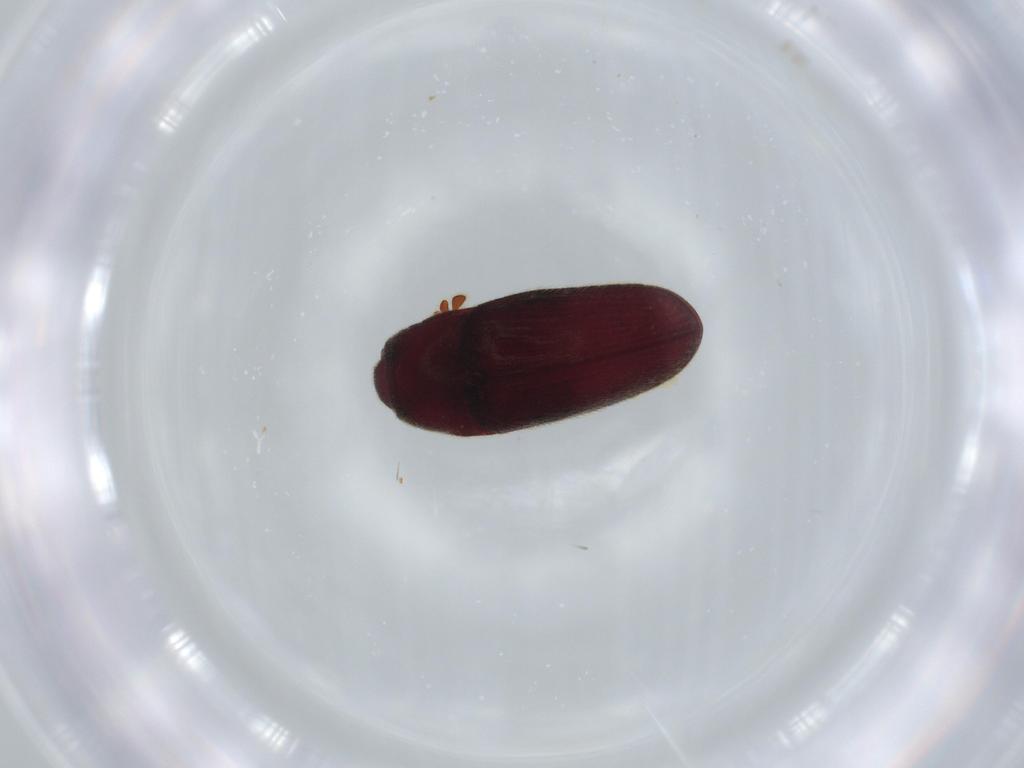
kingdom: Animalia
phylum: Arthropoda
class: Insecta
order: Coleoptera
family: Throscidae
